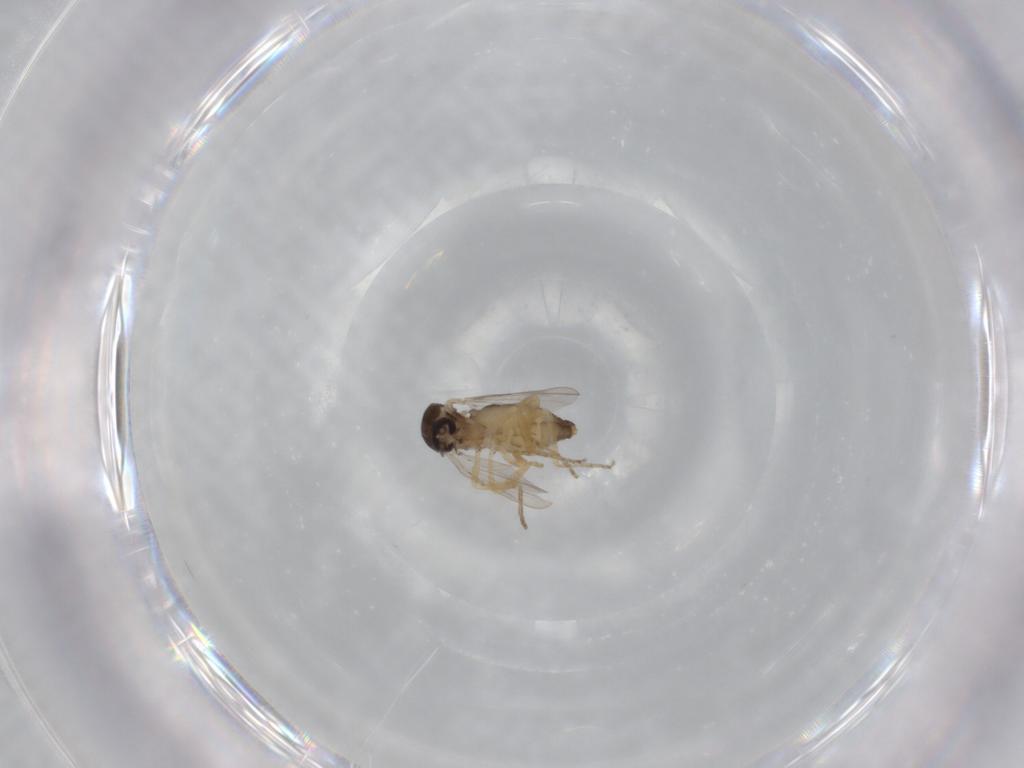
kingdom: Animalia
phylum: Arthropoda
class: Insecta
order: Diptera
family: Ceratopogonidae
